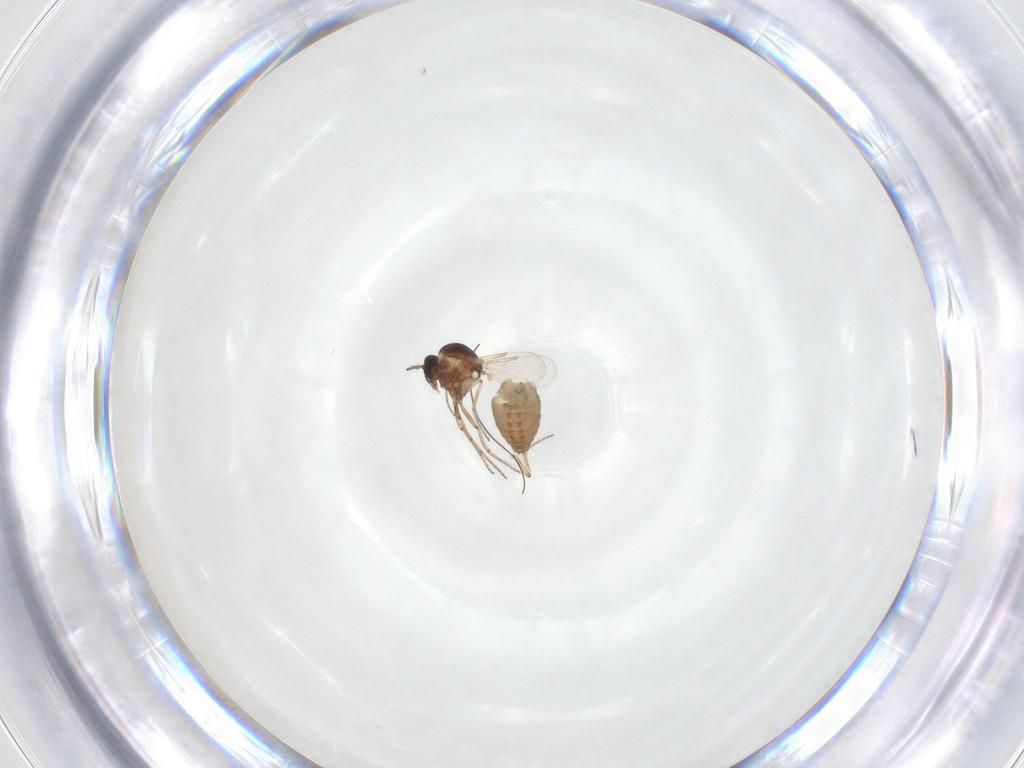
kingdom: Animalia
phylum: Arthropoda
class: Insecta
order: Diptera
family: Ceratopogonidae
